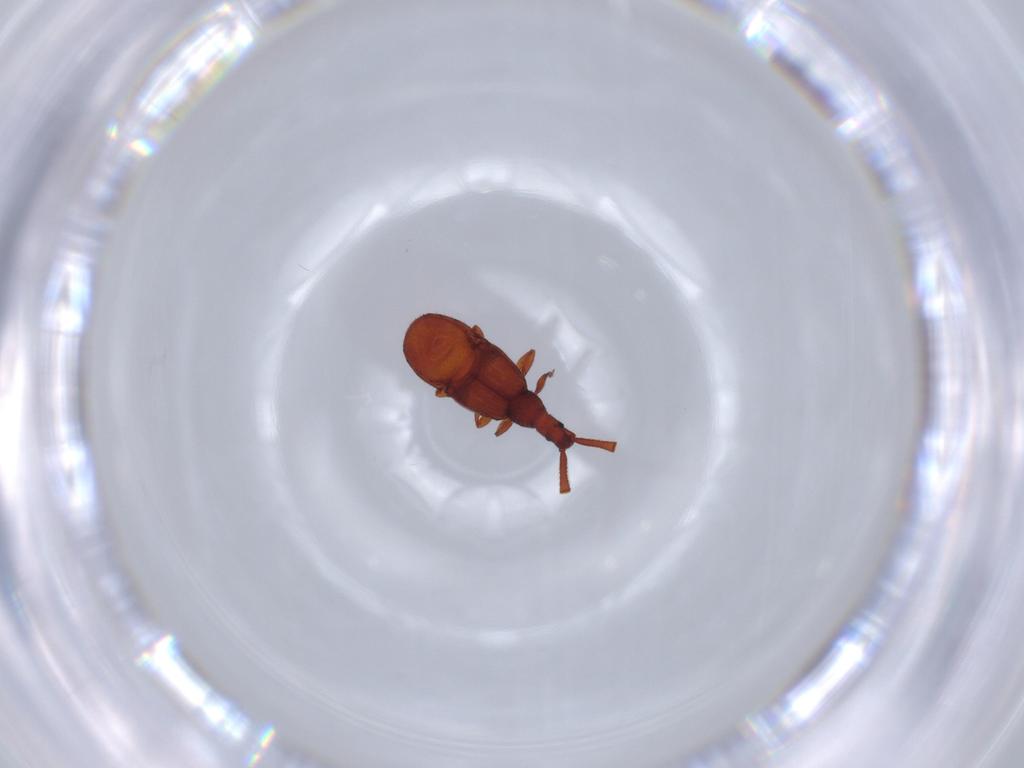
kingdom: Animalia
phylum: Arthropoda
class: Insecta
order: Coleoptera
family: Staphylinidae
